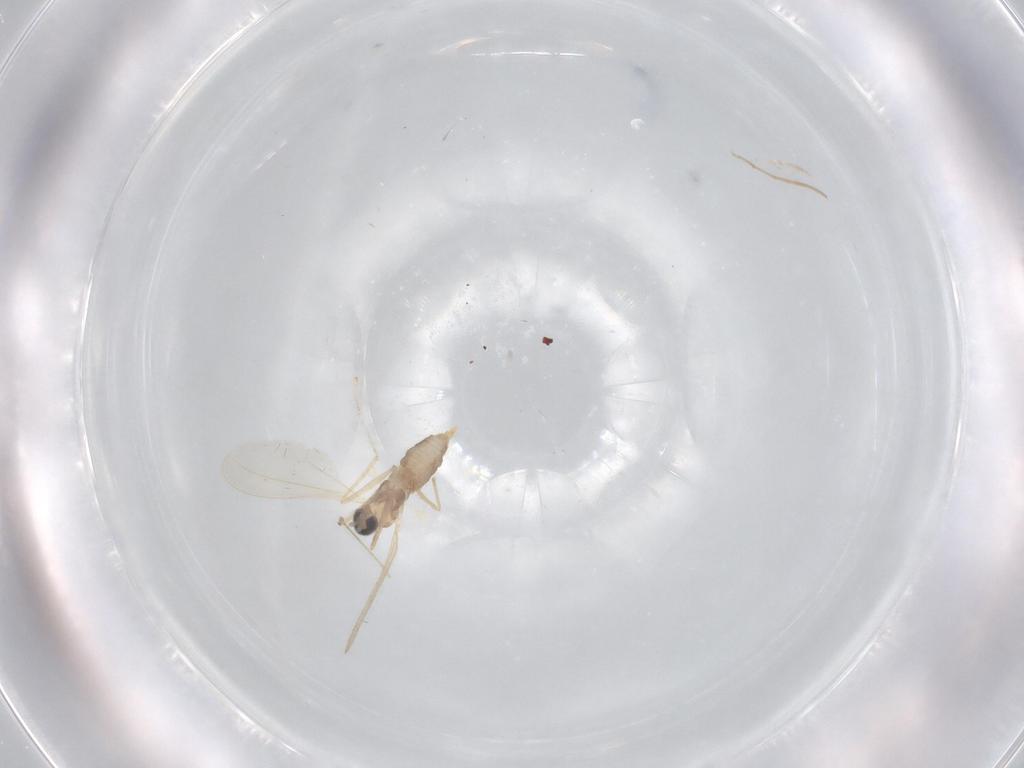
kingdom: Animalia
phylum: Arthropoda
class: Insecta
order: Diptera
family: Cecidomyiidae
